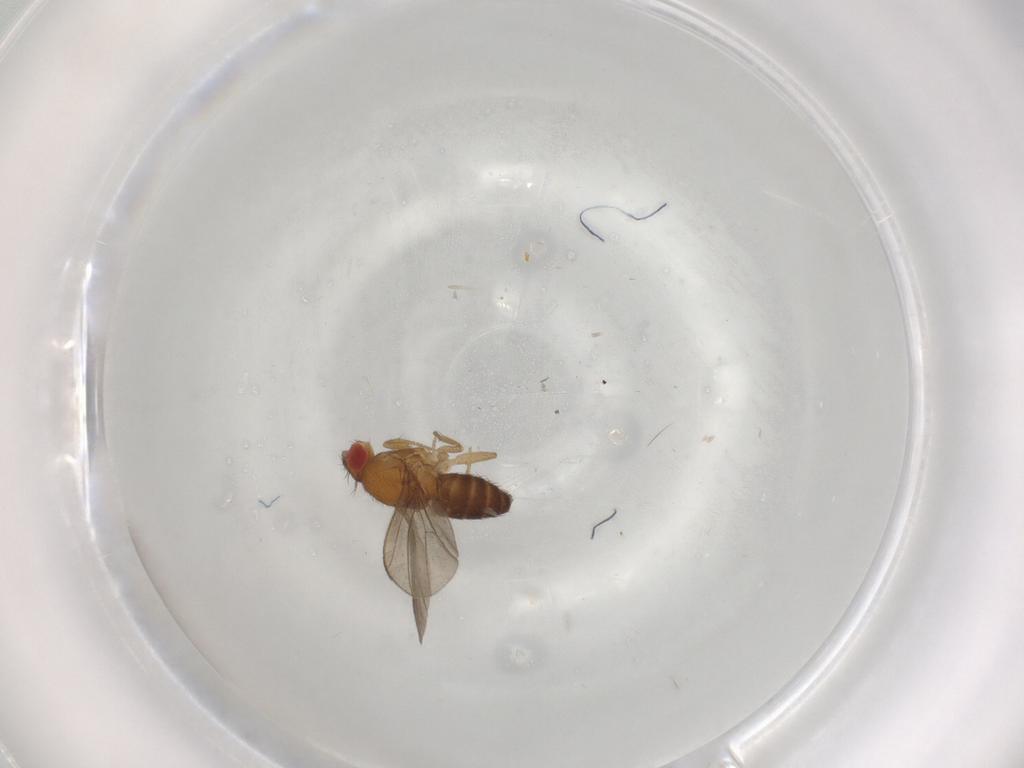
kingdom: Animalia
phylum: Arthropoda
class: Insecta
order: Diptera
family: Drosophilidae
